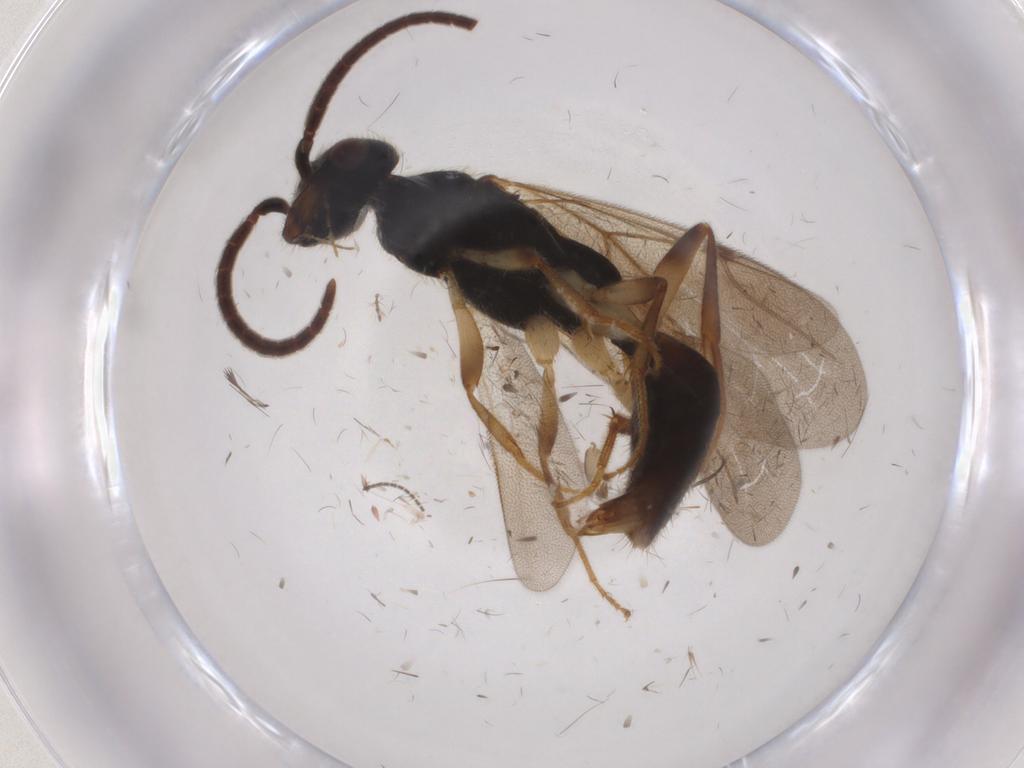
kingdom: Animalia
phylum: Arthropoda
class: Insecta
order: Hymenoptera
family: Bethylidae
